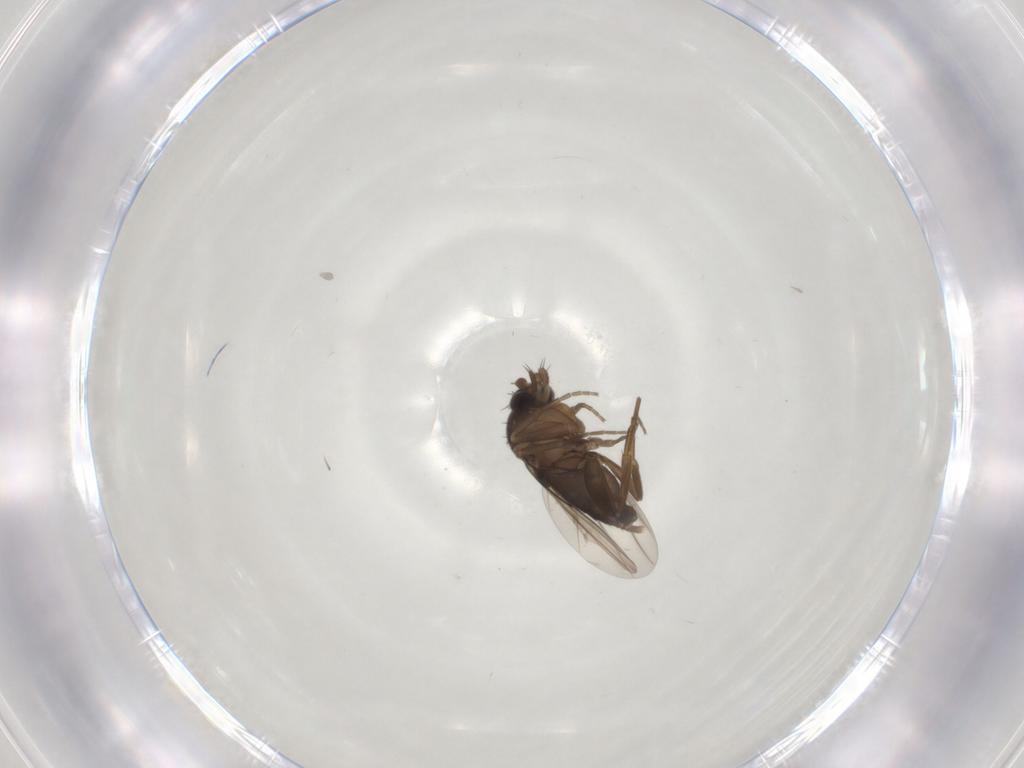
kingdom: Animalia
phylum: Arthropoda
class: Insecta
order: Diptera
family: Phoridae
